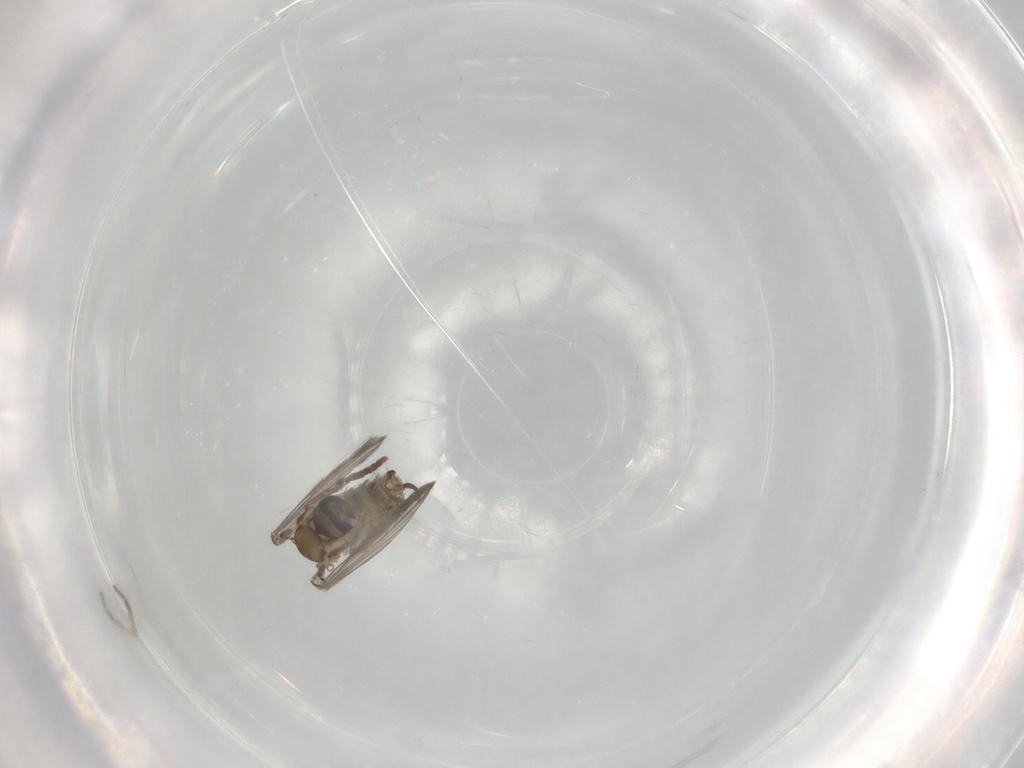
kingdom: Animalia
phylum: Arthropoda
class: Insecta
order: Diptera
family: Psychodidae
